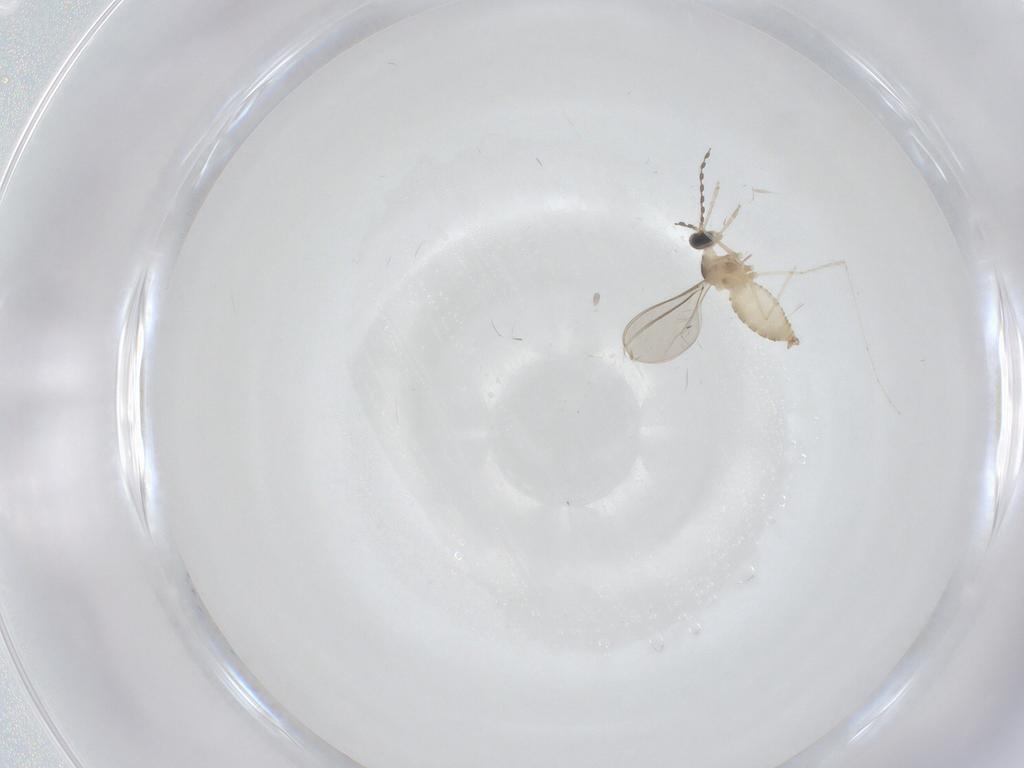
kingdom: Animalia
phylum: Arthropoda
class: Insecta
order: Diptera
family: Cecidomyiidae
